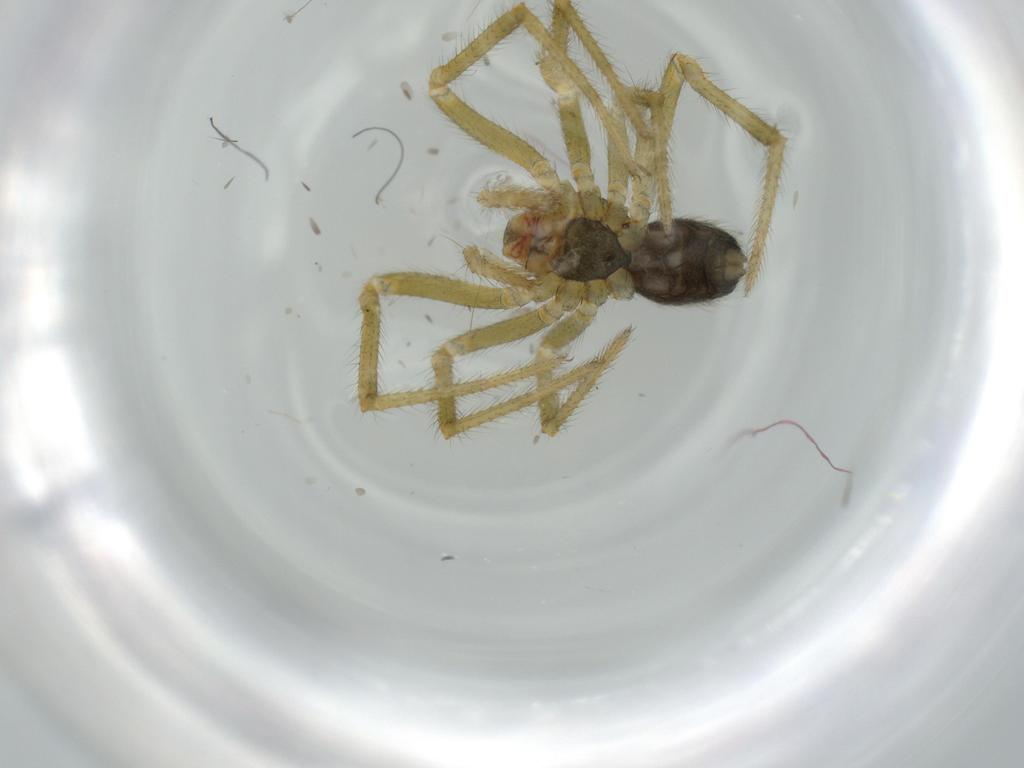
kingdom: Animalia
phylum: Arthropoda
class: Arachnida
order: Araneae
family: Nesticidae
